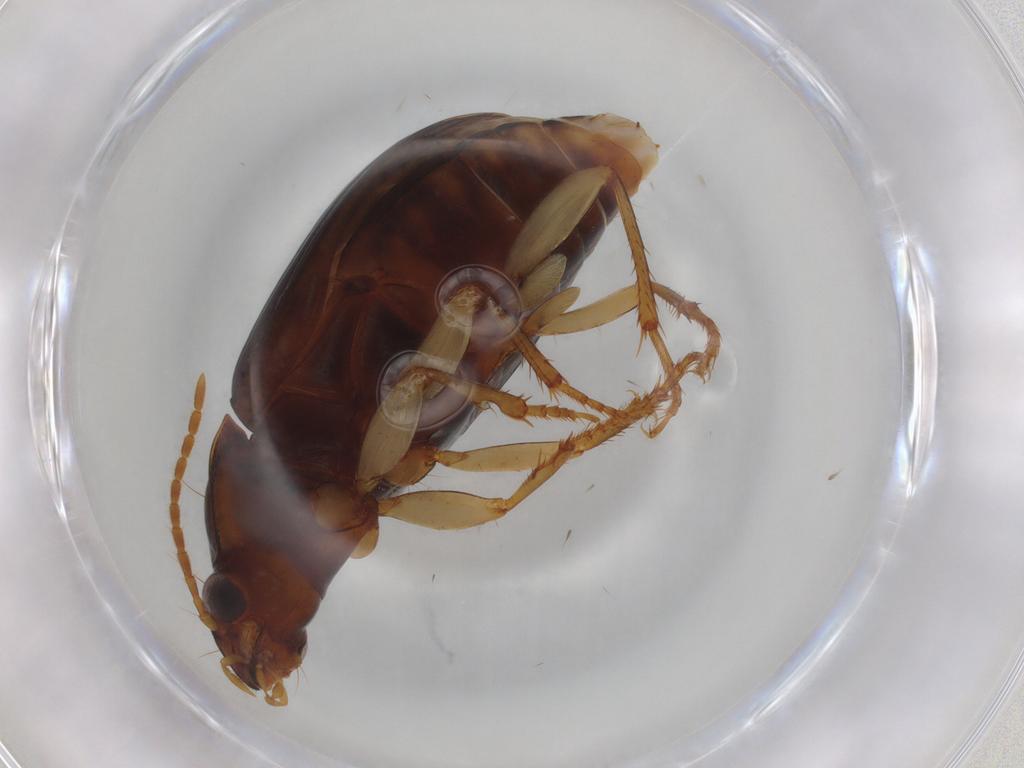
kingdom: Animalia
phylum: Arthropoda
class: Insecta
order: Coleoptera
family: Carabidae
